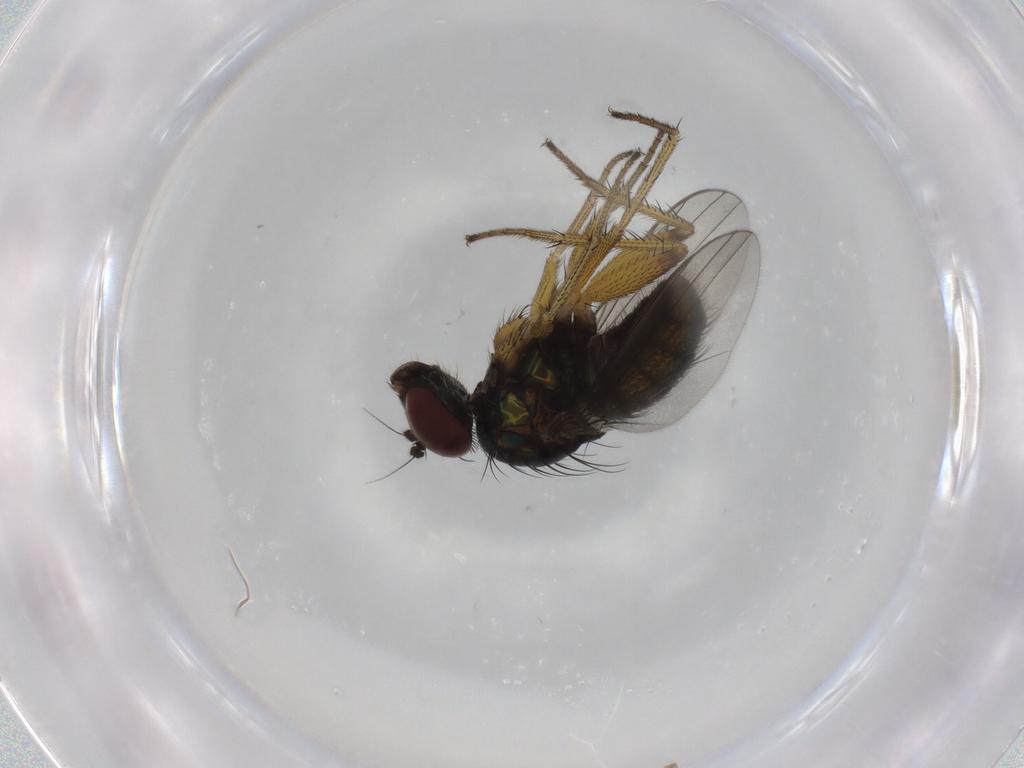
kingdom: Animalia
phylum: Arthropoda
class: Insecta
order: Diptera
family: Dolichopodidae
